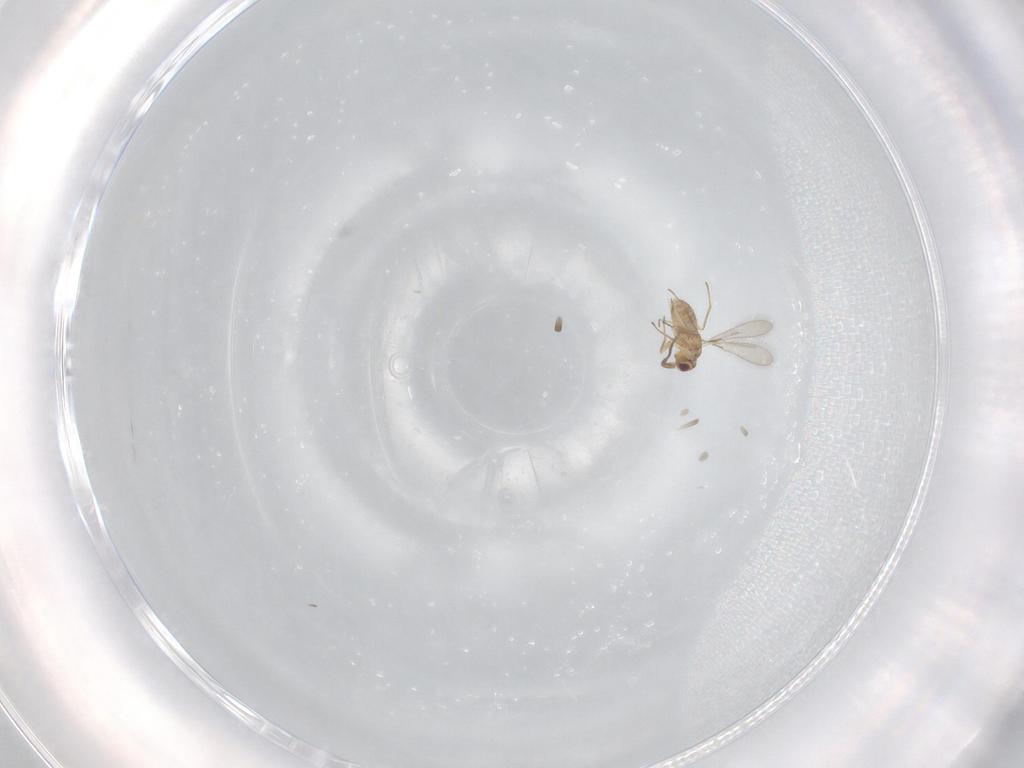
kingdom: Animalia
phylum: Arthropoda
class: Insecta
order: Hymenoptera
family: Mymaridae
